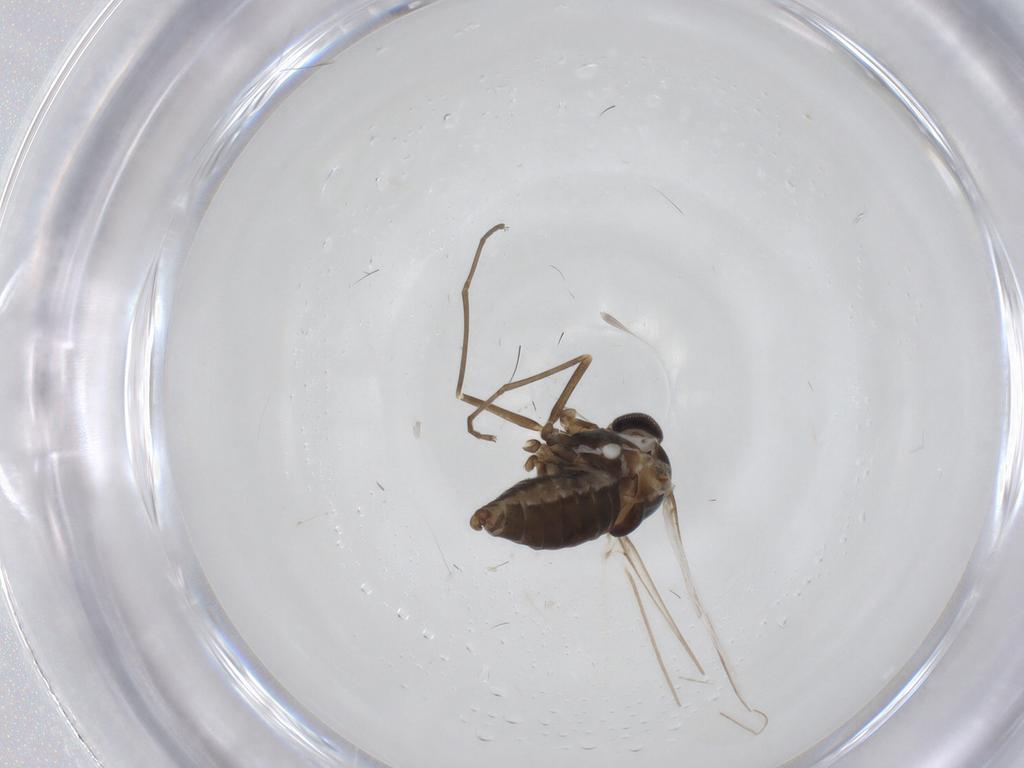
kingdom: Animalia
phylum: Arthropoda
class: Insecta
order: Diptera
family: Cecidomyiidae
